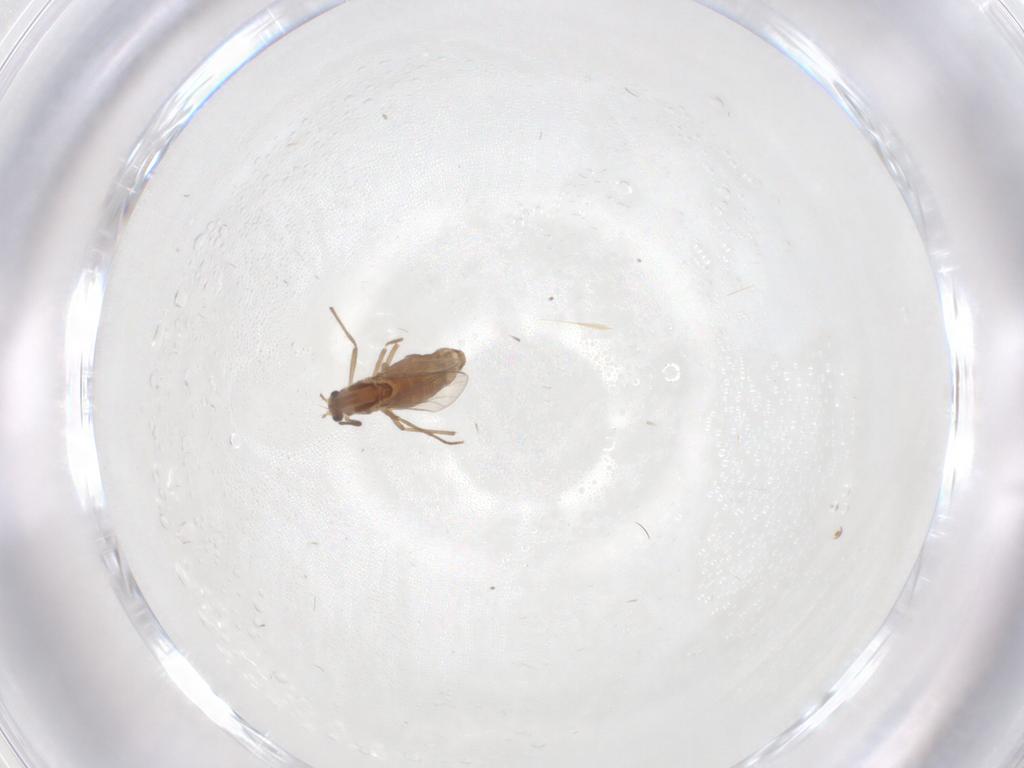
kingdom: Animalia
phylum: Arthropoda
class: Insecta
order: Diptera
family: Chironomidae
